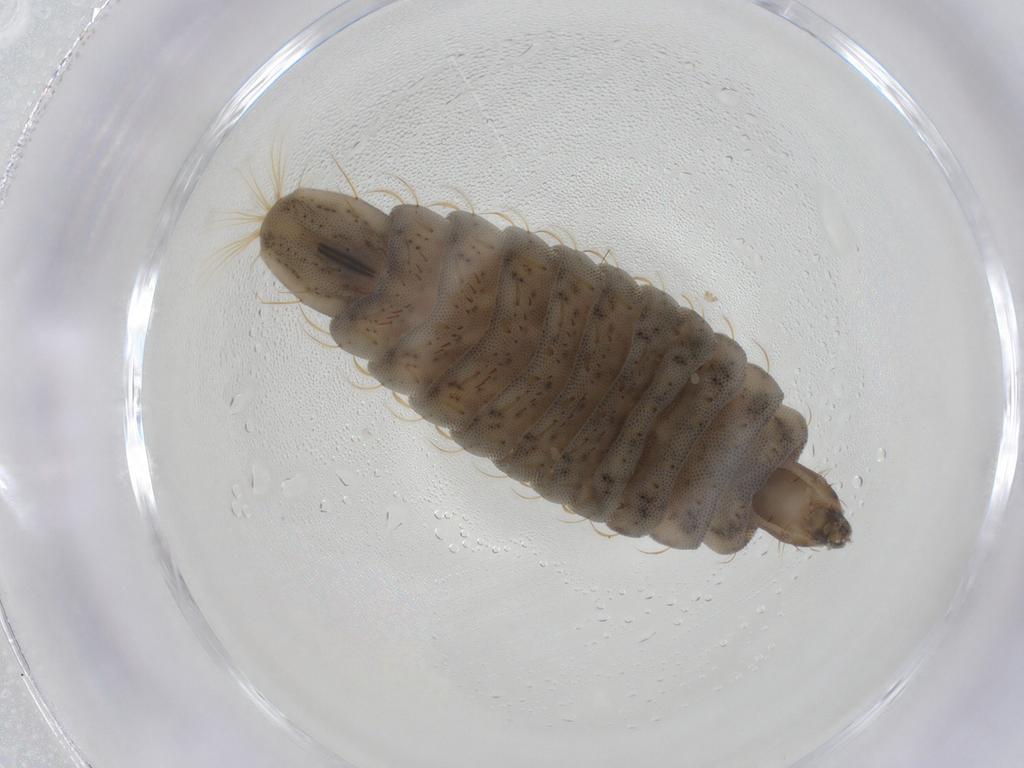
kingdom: Animalia
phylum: Arthropoda
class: Insecta
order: Diptera
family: Stratiomyidae
